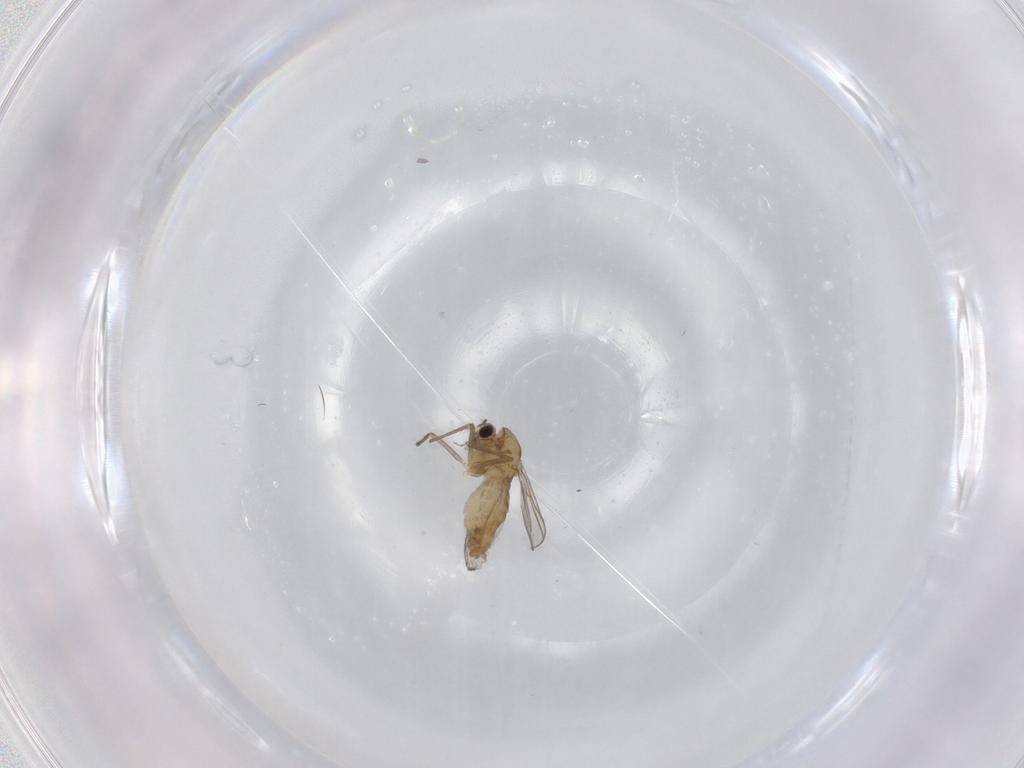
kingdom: Animalia
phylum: Arthropoda
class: Insecta
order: Diptera
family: Chironomidae
